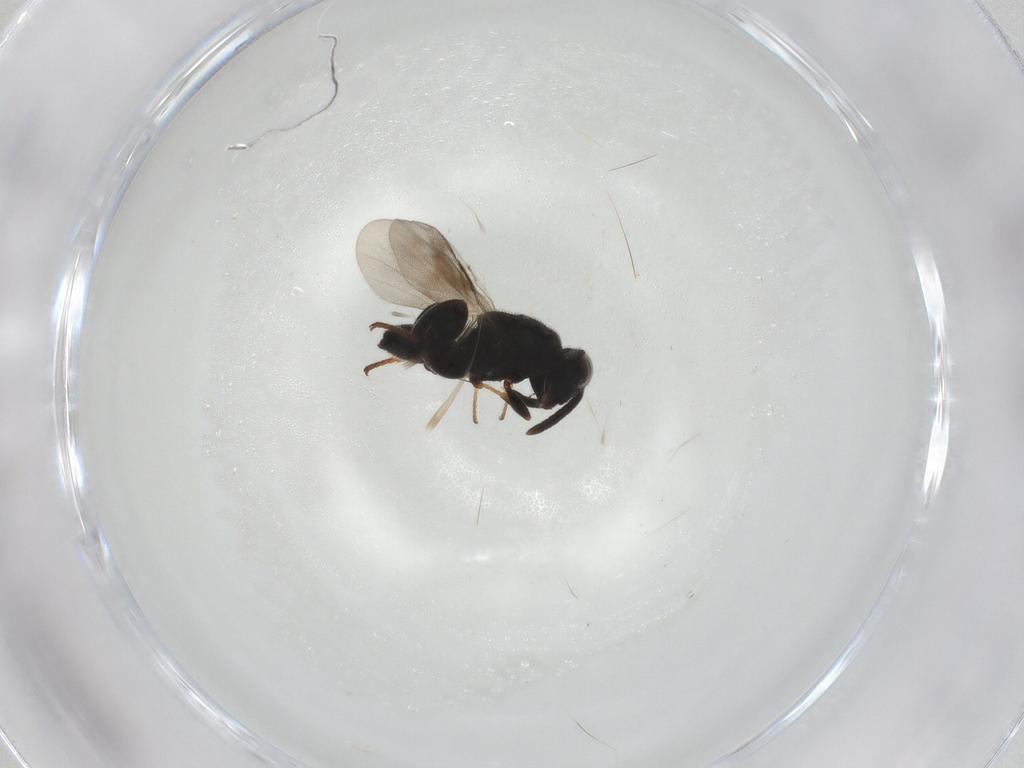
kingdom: Animalia
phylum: Arthropoda
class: Insecta
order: Hymenoptera
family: Chalcididae
